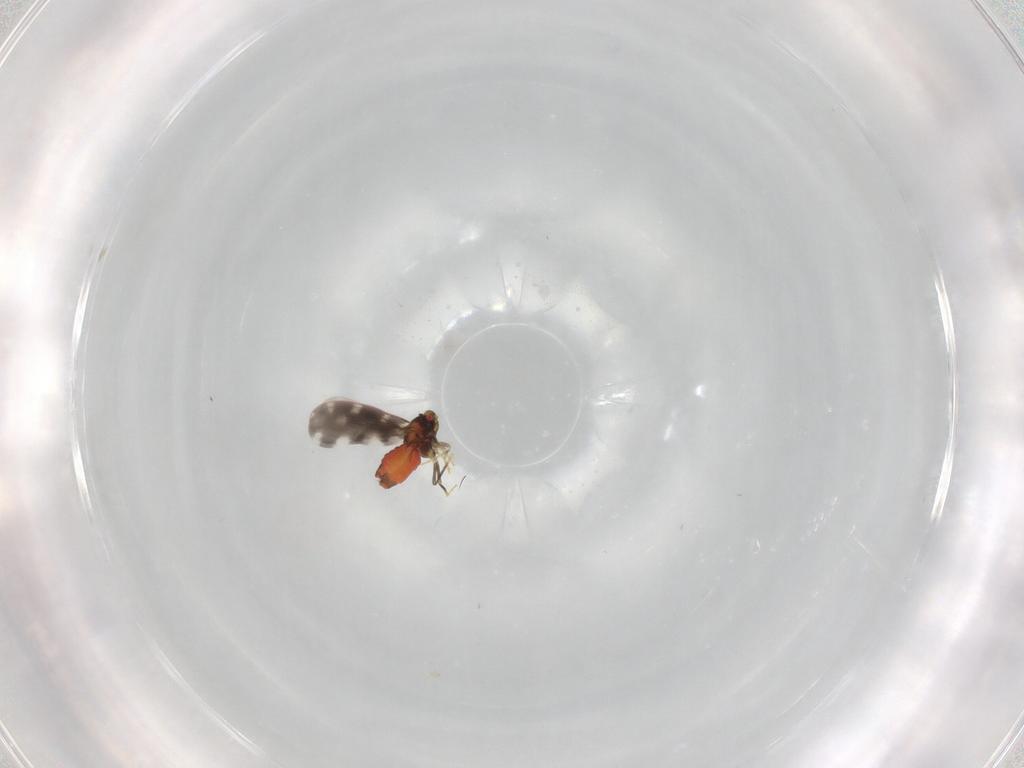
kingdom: Animalia
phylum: Arthropoda
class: Insecta
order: Hemiptera
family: Aleyrodidae
